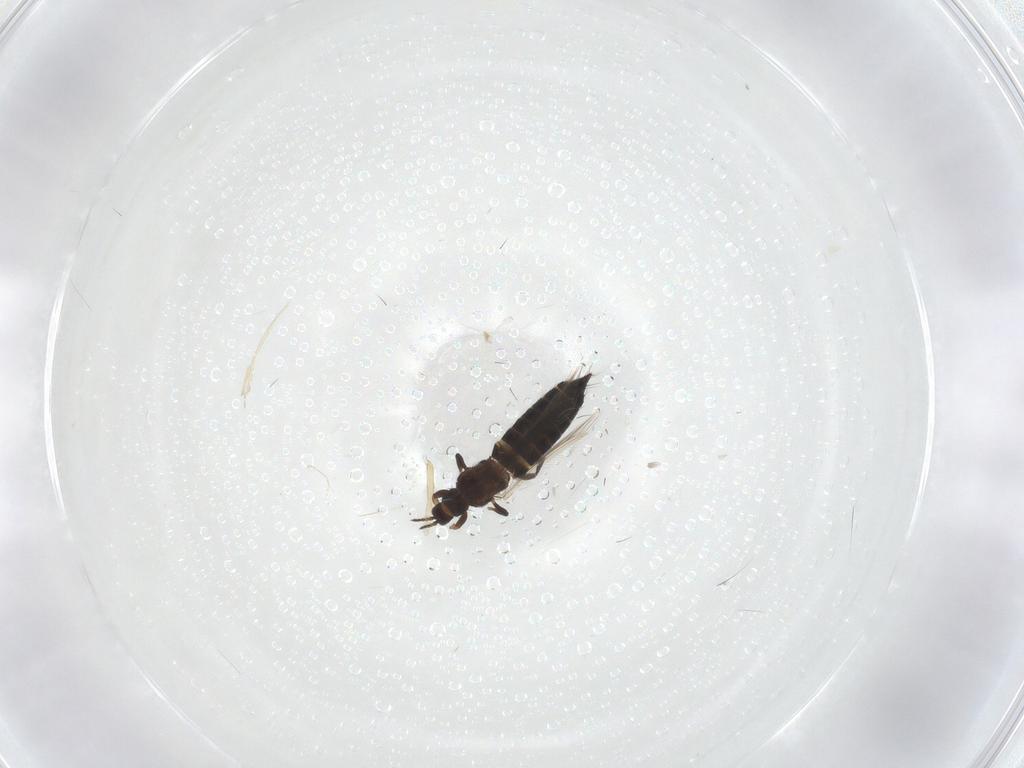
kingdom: Animalia
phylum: Arthropoda
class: Insecta
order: Thysanoptera
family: Thripidae
